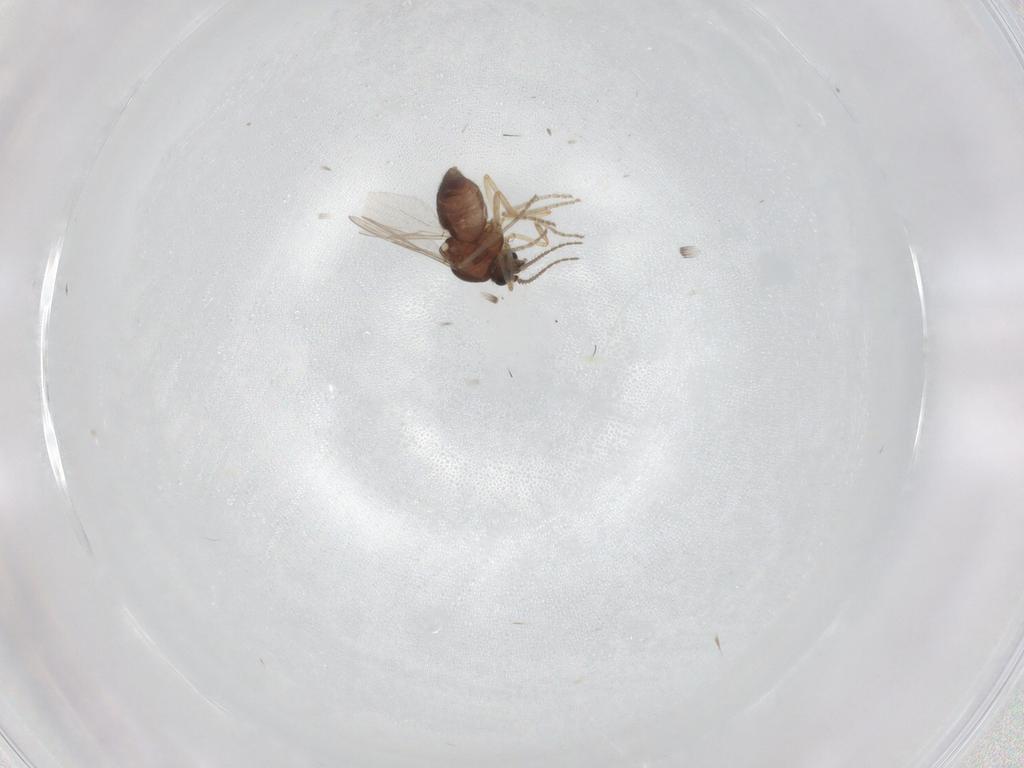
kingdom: Animalia
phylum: Arthropoda
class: Insecta
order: Diptera
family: Ceratopogonidae
